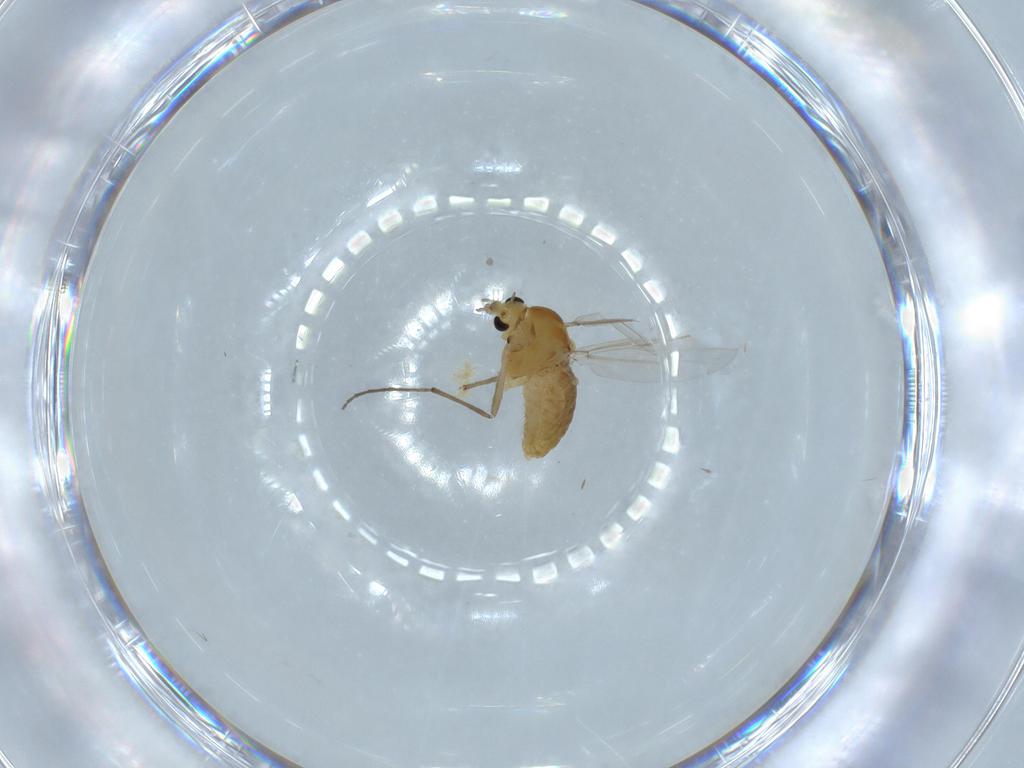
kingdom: Animalia
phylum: Arthropoda
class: Insecta
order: Diptera
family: Chironomidae
